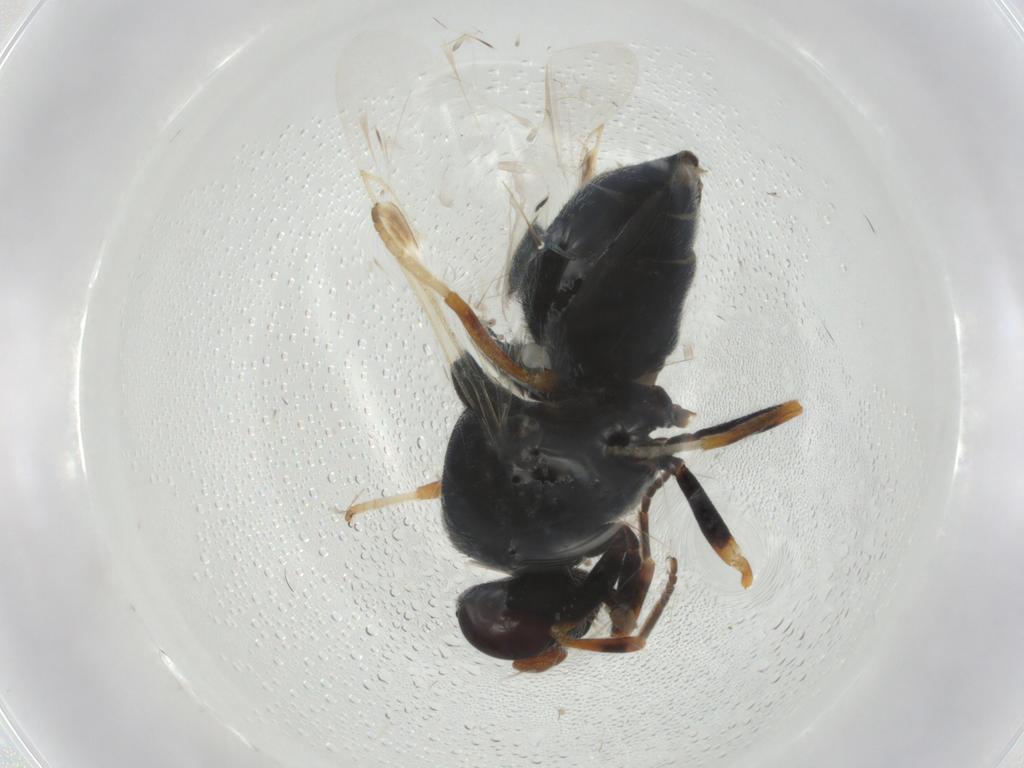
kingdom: Animalia
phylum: Arthropoda
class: Insecta
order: Diptera
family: Stratiomyidae
